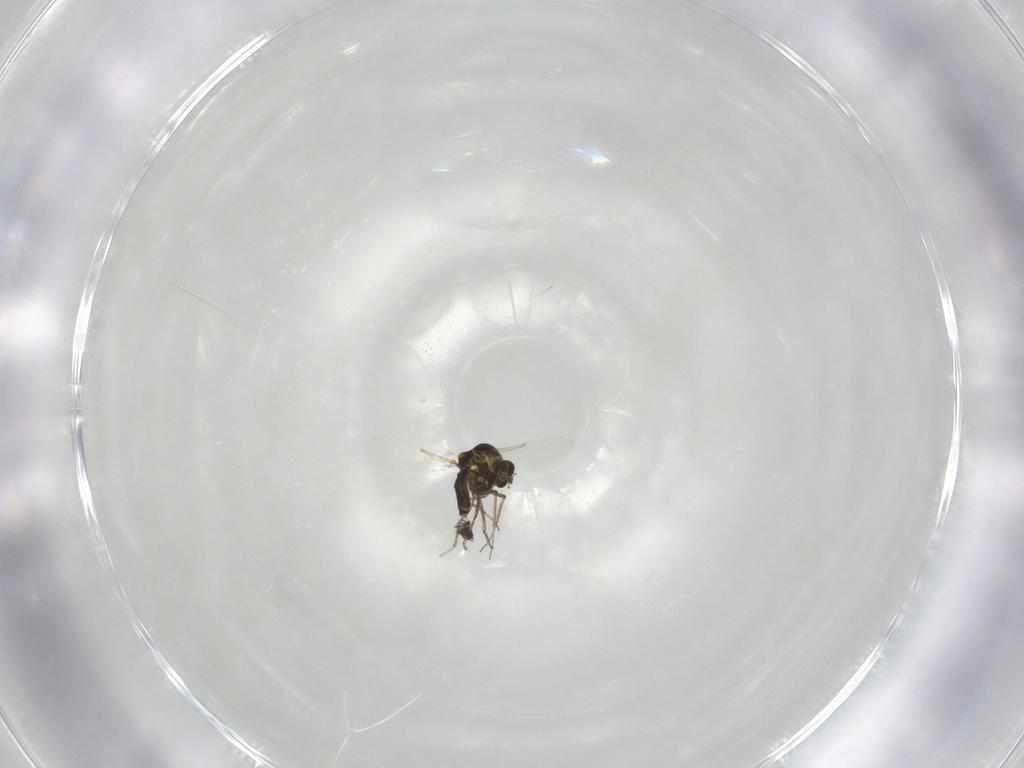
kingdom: Animalia
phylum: Arthropoda
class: Insecta
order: Diptera
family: Ceratopogonidae
